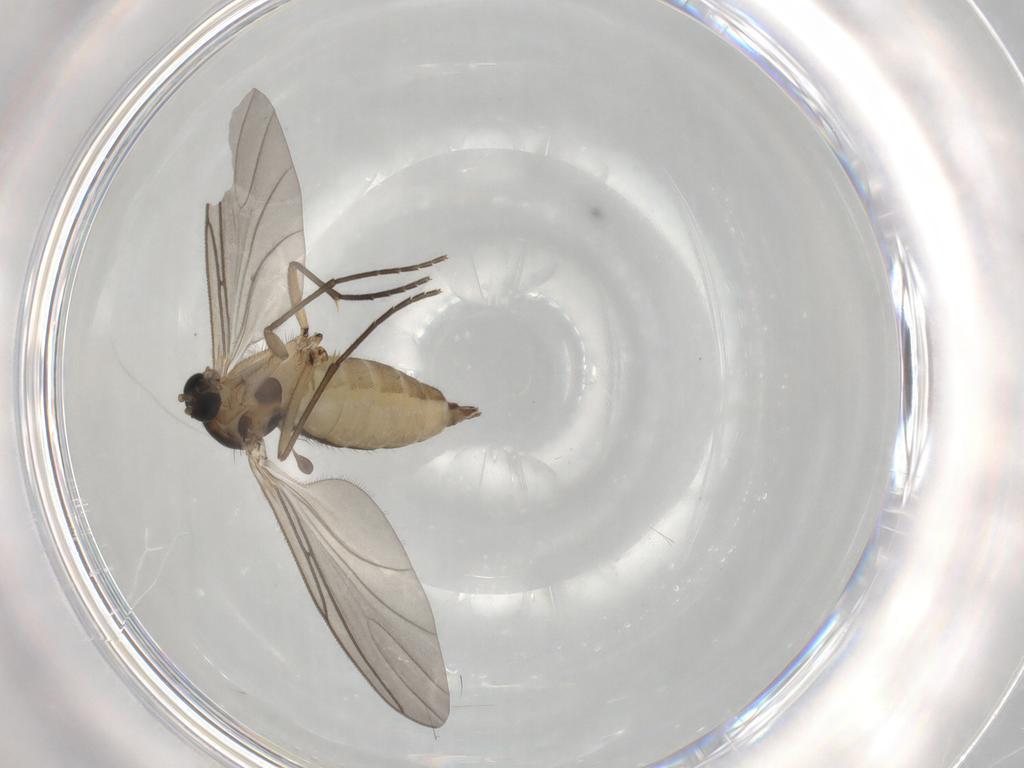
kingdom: Animalia
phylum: Arthropoda
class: Insecta
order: Diptera
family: Sciaridae
